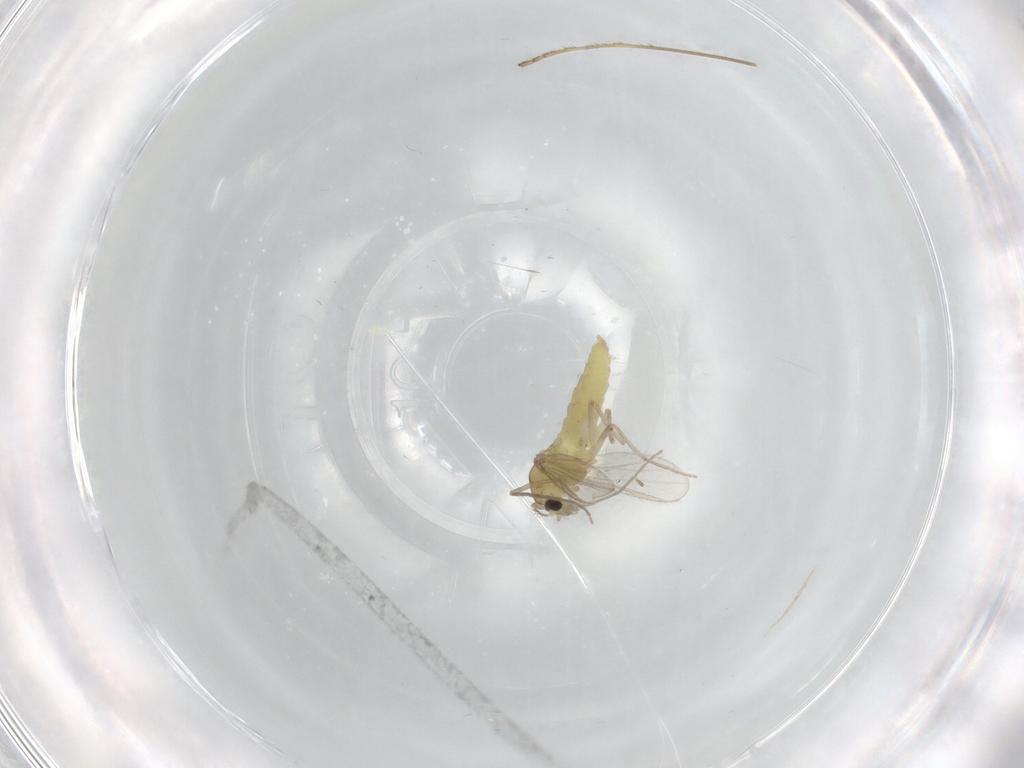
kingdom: Animalia
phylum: Arthropoda
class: Insecta
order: Diptera
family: Chironomidae
